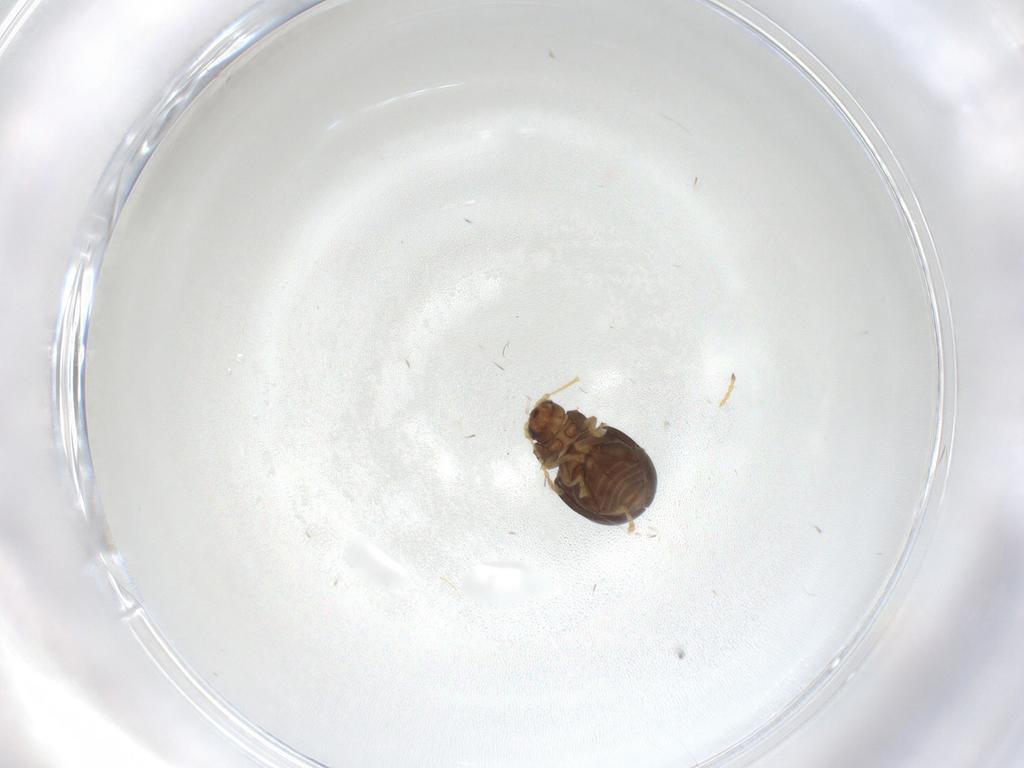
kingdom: Animalia
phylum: Arthropoda
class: Insecta
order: Coleoptera
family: Chrysomelidae
